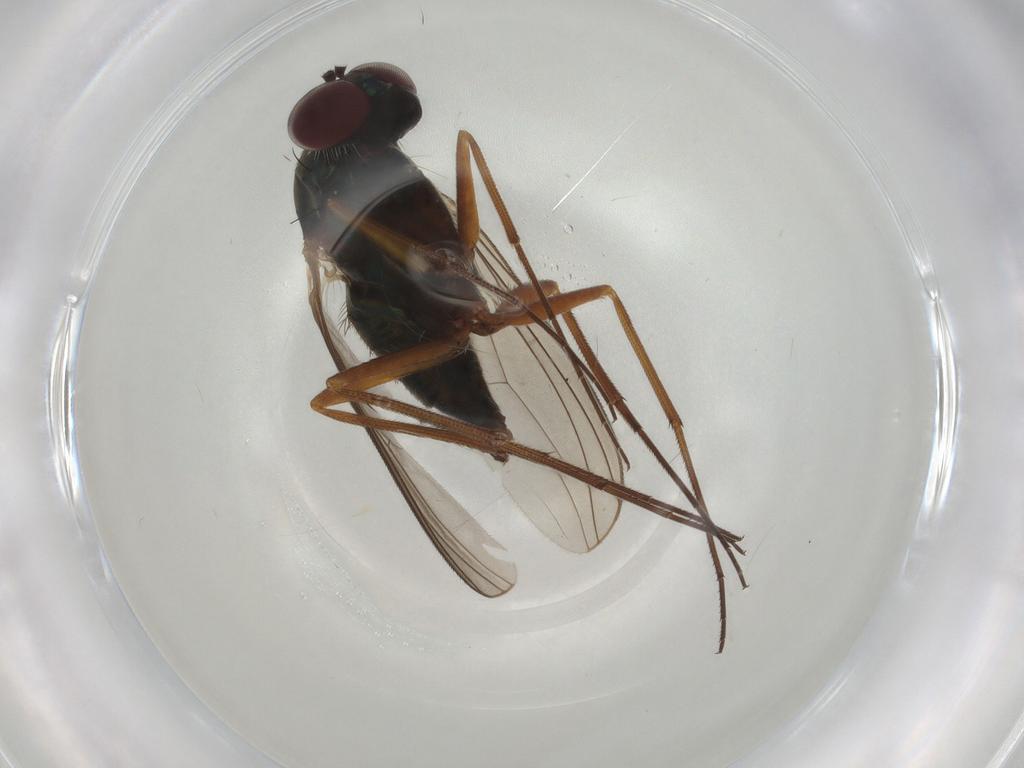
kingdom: Animalia
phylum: Arthropoda
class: Insecta
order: Diptera
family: Dolichopodidae
